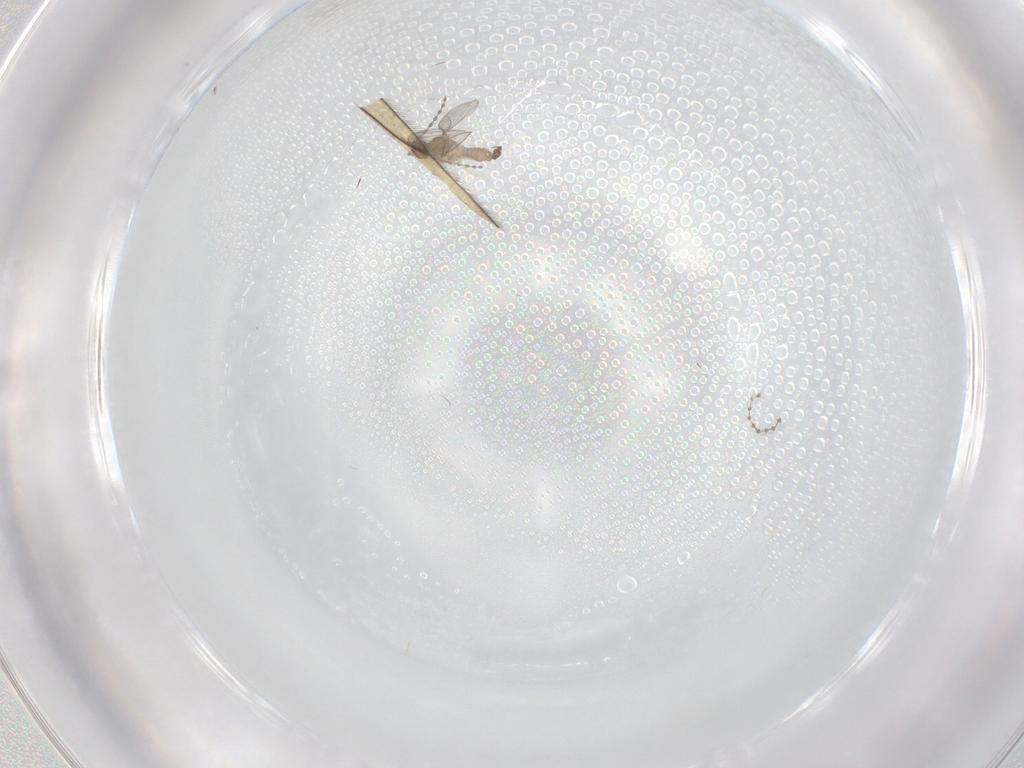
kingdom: Animalia
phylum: Arthropoda
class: Insecta
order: Diptera
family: Cecidomyiidae
